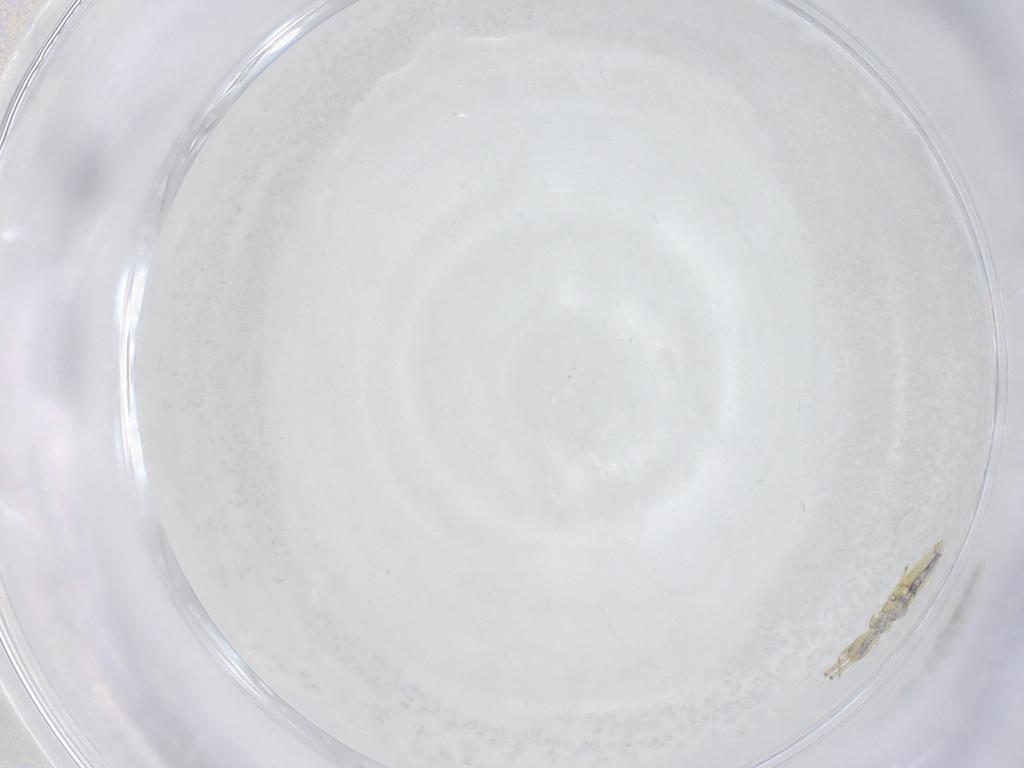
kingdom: Animalia
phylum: Arthropoda
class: Collembola
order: Entomobryomorpha
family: Paronellidae
